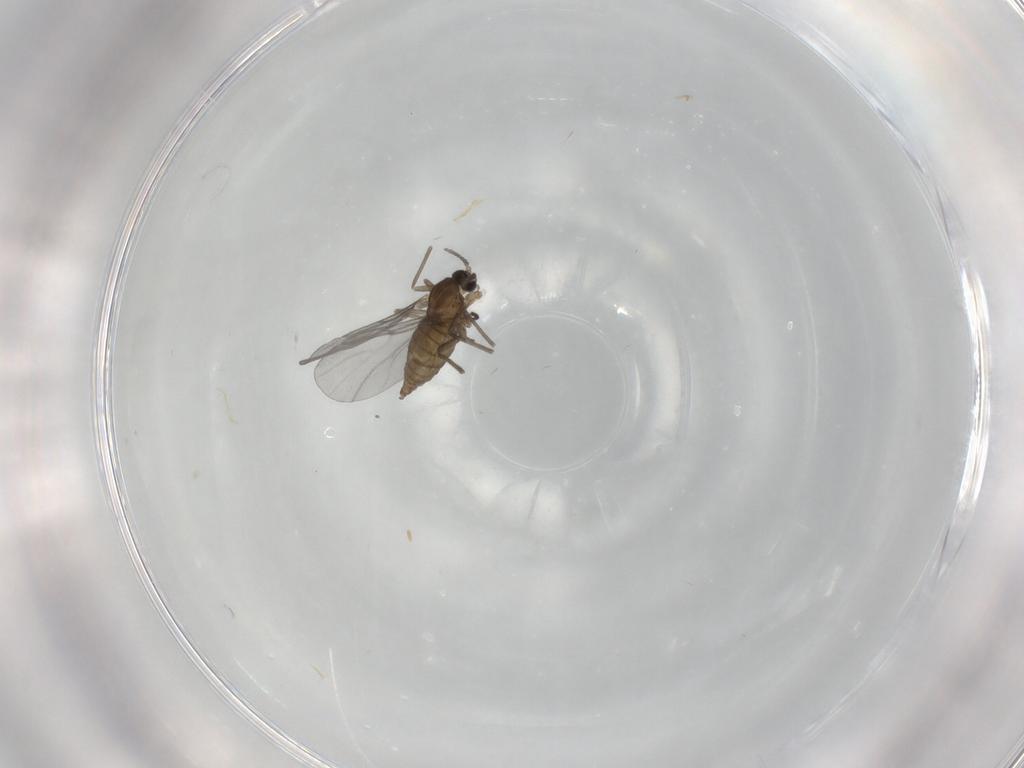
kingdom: Animalia
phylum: Arthropoda
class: Insecta
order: Diptera
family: Cecidomyiidae
